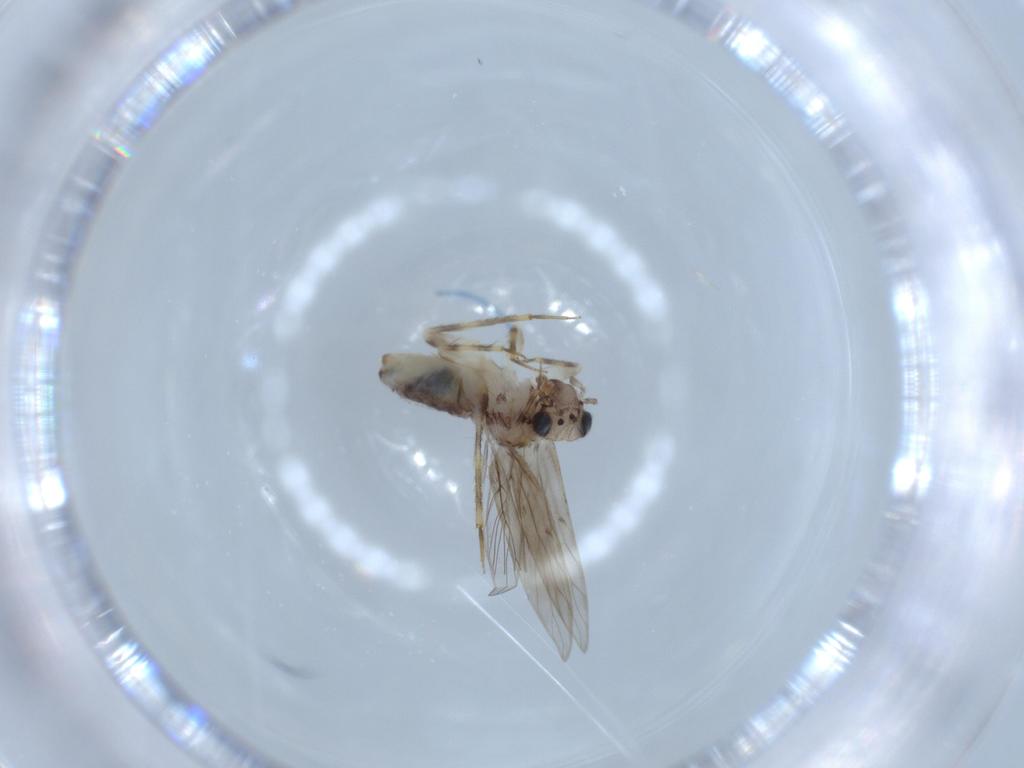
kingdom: Animalia
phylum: Arthropoda
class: Insecta
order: Psocodea
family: Lepidopsocidae
